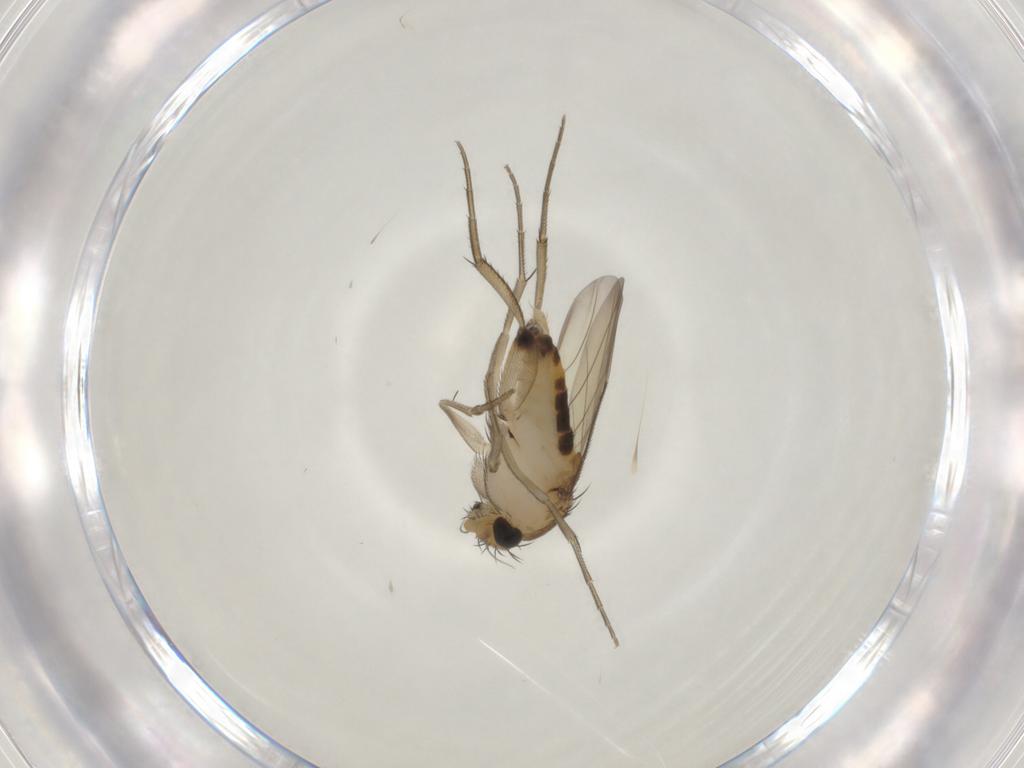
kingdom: Animalia
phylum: Arthropoda
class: Insecta
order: Diptera
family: Phoridae
